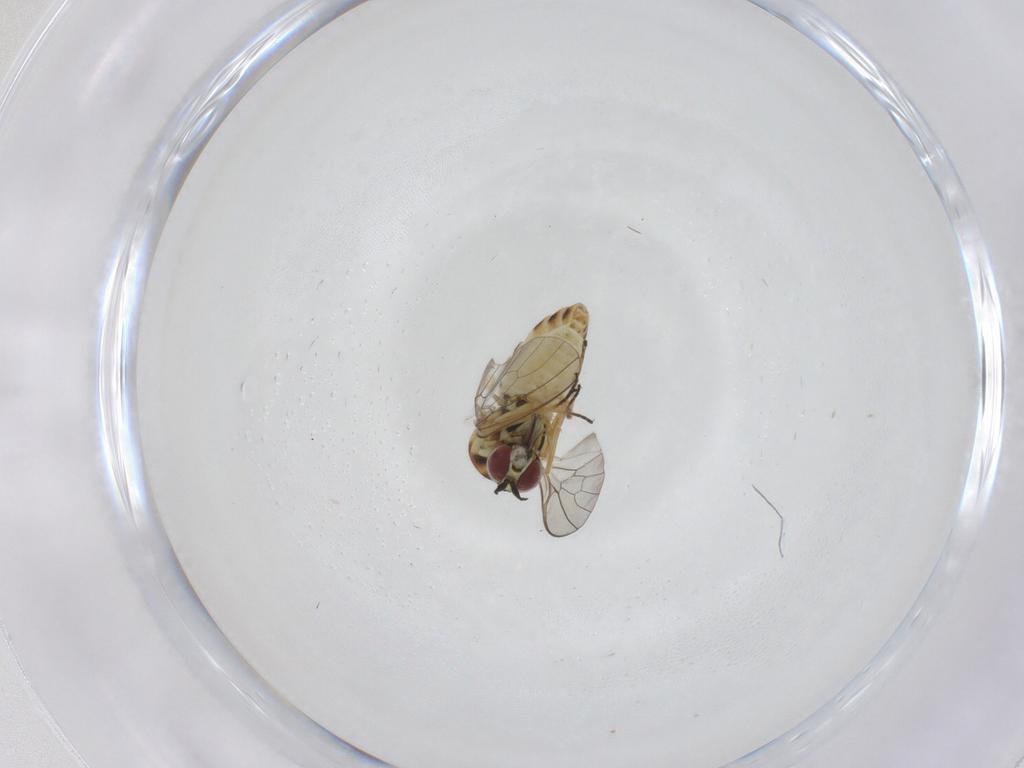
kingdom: Animalia
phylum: Arthropoda
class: Insecta
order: Diptera
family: Bombyliidae
